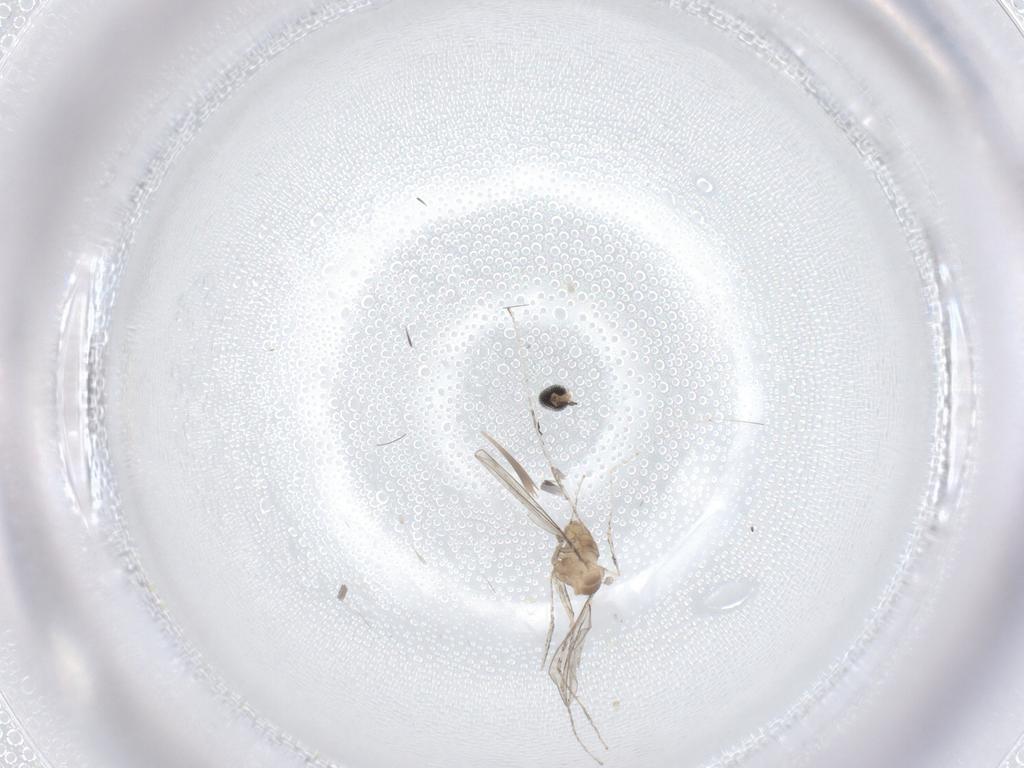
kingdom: Animalia
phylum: Arthropoda
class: Insecta
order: Diptera
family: Cecidomyiidae
